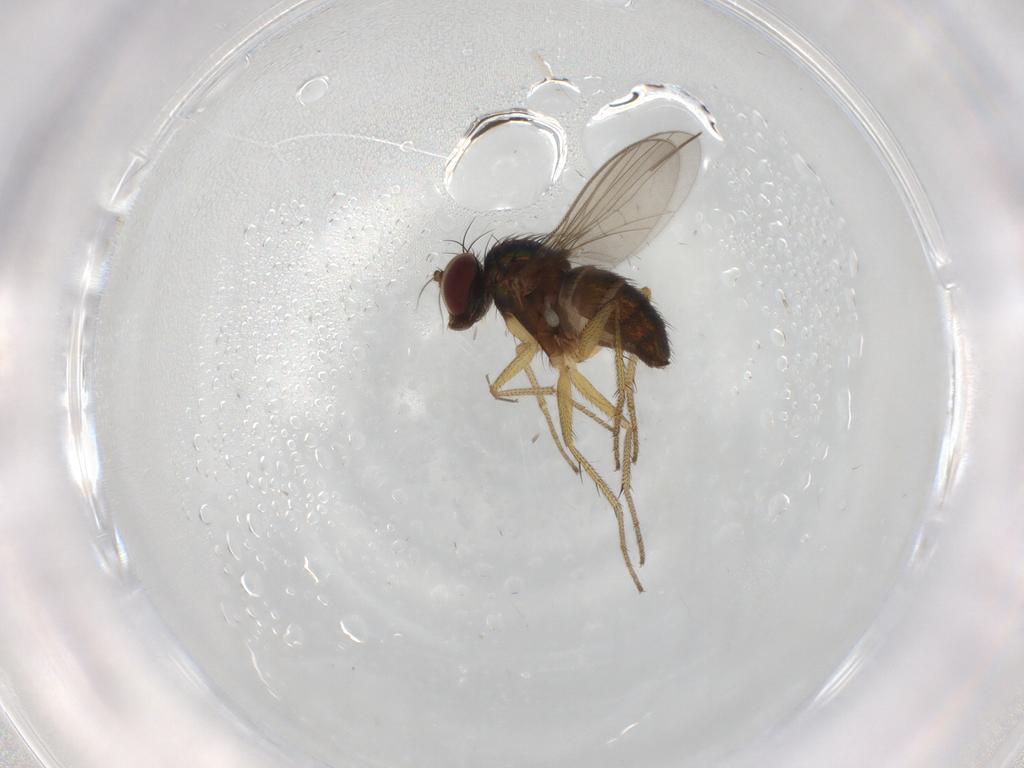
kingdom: Animalia
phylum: Arthropoda
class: Insecta
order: Diptera
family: Chironomidae
